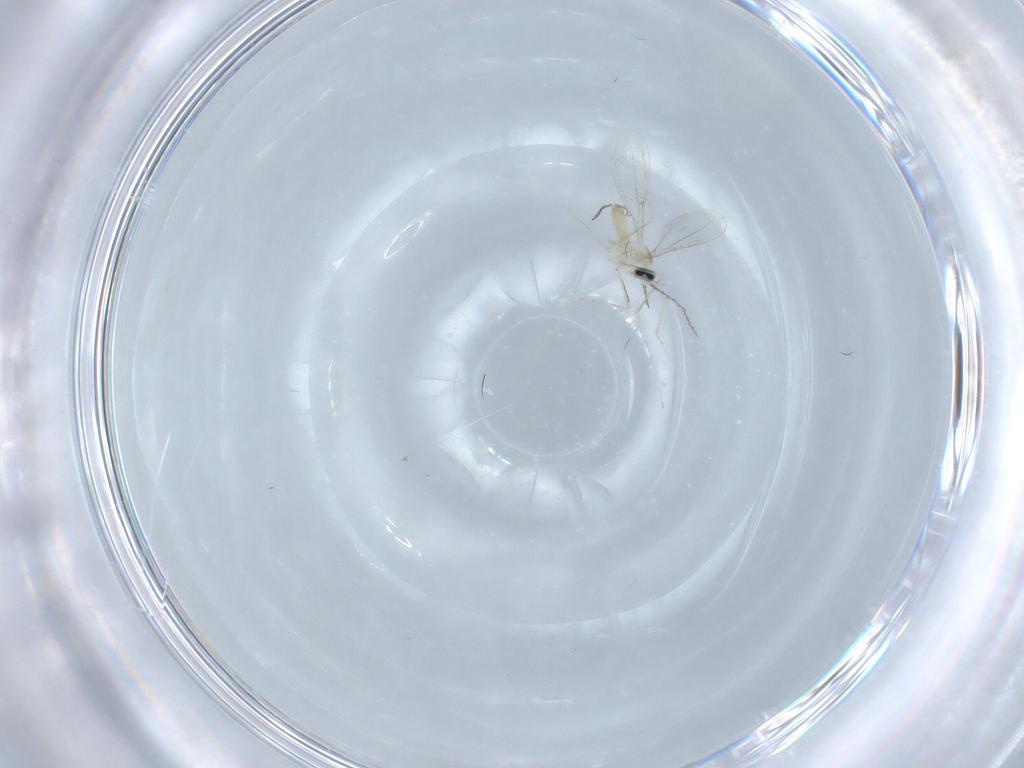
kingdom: Animalia
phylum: Arthropoda
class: Insecta
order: Diptera
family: Cecidomyiidae
